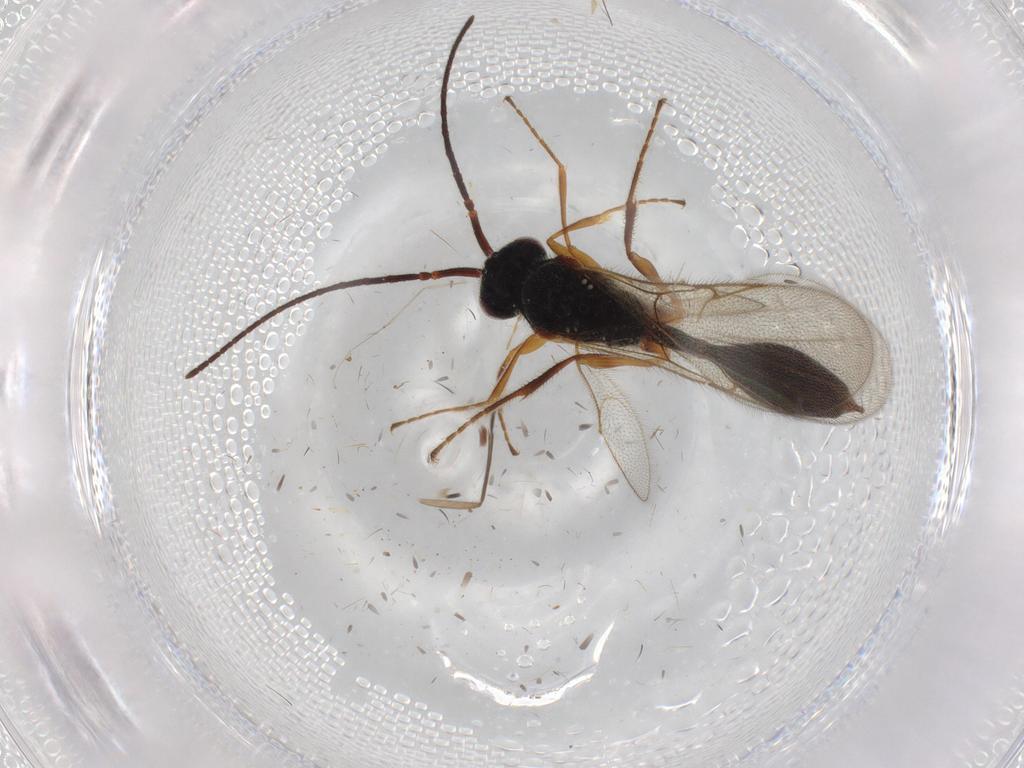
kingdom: Animalia
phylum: Arthropoda
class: Insecta
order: Hymenoptera
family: Diapriidae
